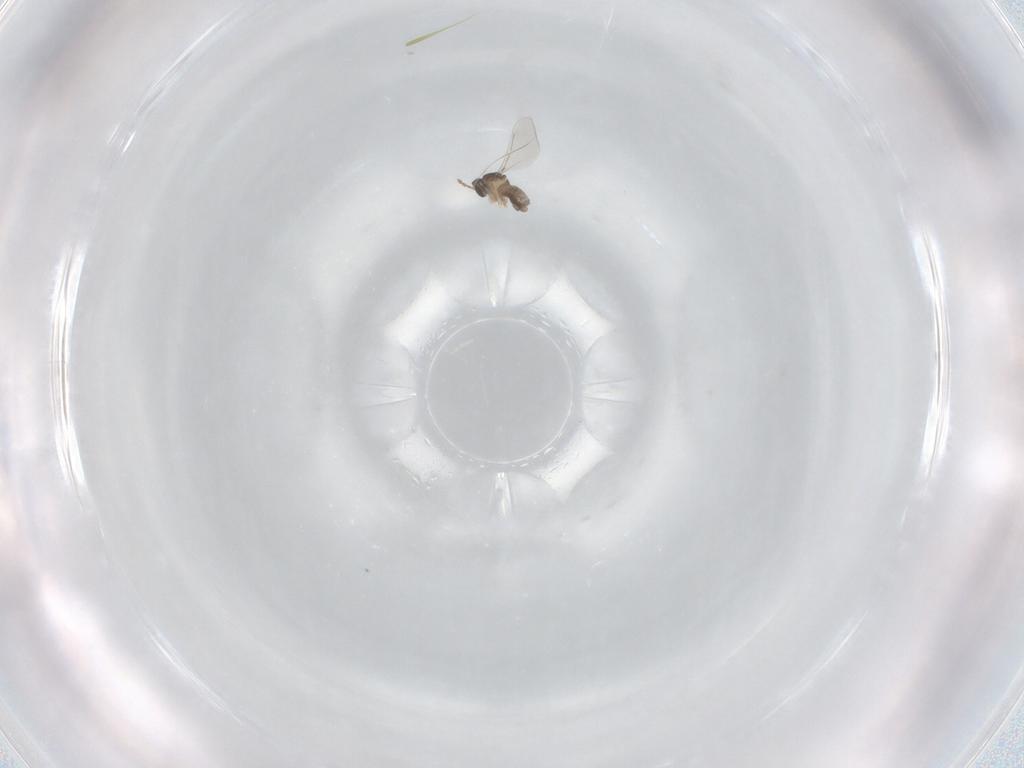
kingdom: Animalia
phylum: Arthropoda
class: Insecta
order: Diptera
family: Cecidomyiidae
